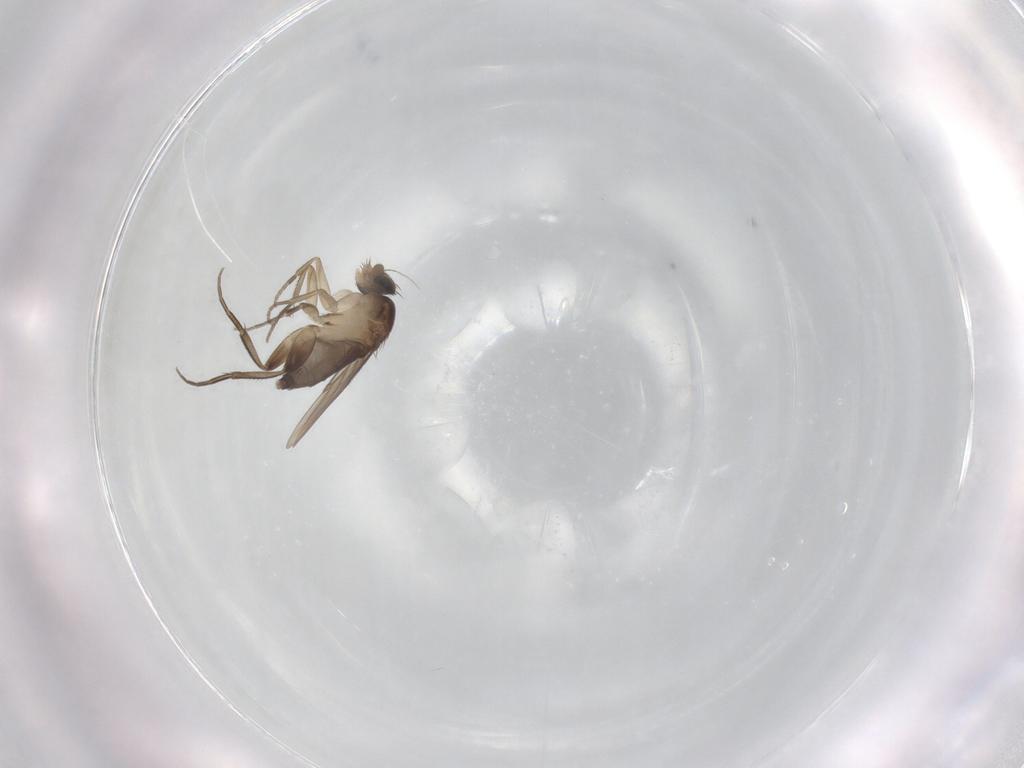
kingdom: Animalia
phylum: Arthropoda
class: Insecta
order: Diptera
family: Phoridae
